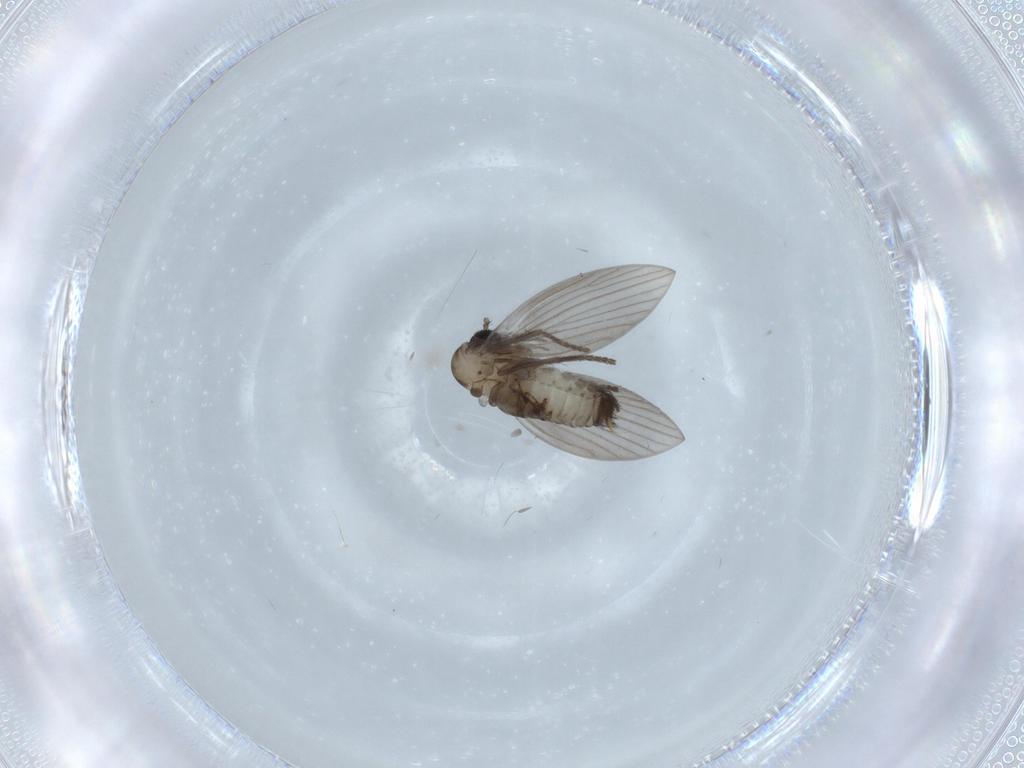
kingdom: Animalia
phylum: Arthropoda
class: Insecta
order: Diptera
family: Psychodidae
